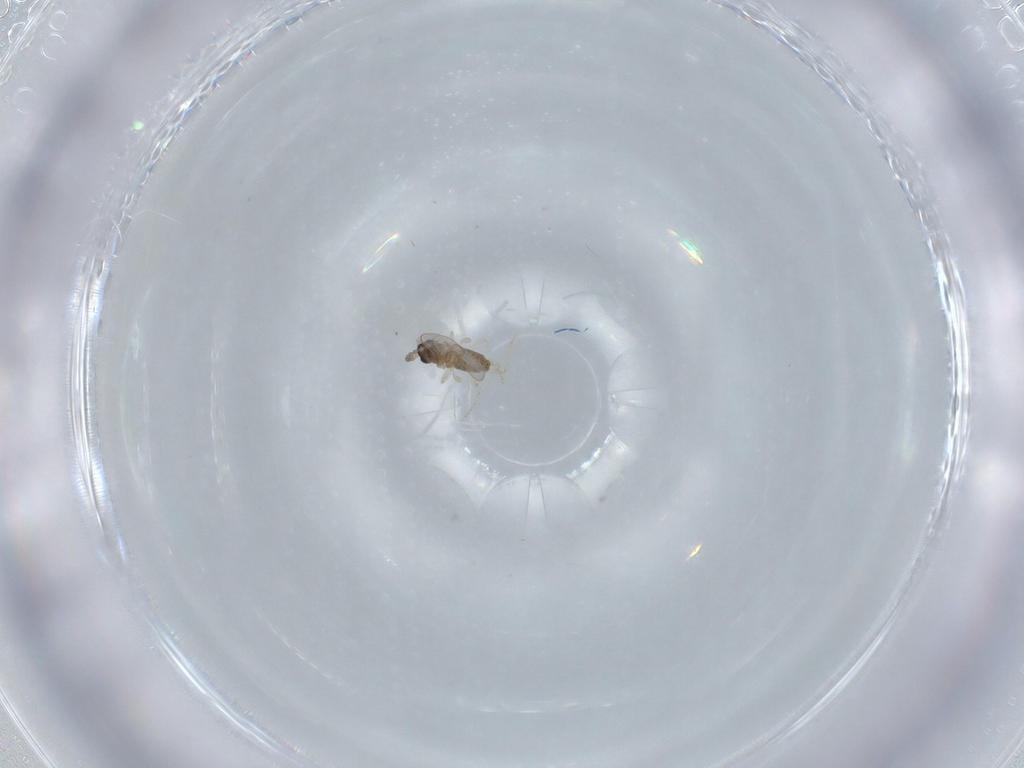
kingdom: Animalia
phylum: Arthropoda
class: Insecta
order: Diptera
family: Cecidomyiidae
